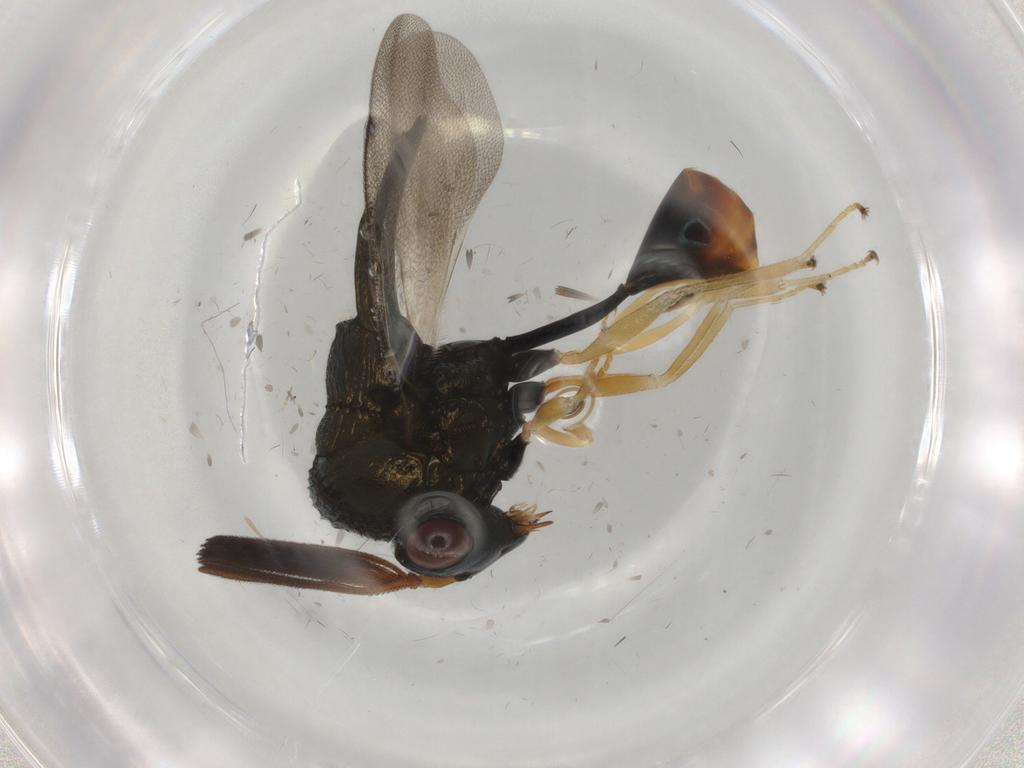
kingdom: Animalia
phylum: Arthropoda
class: Insecta
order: Hymenoptera
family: Formicidae
